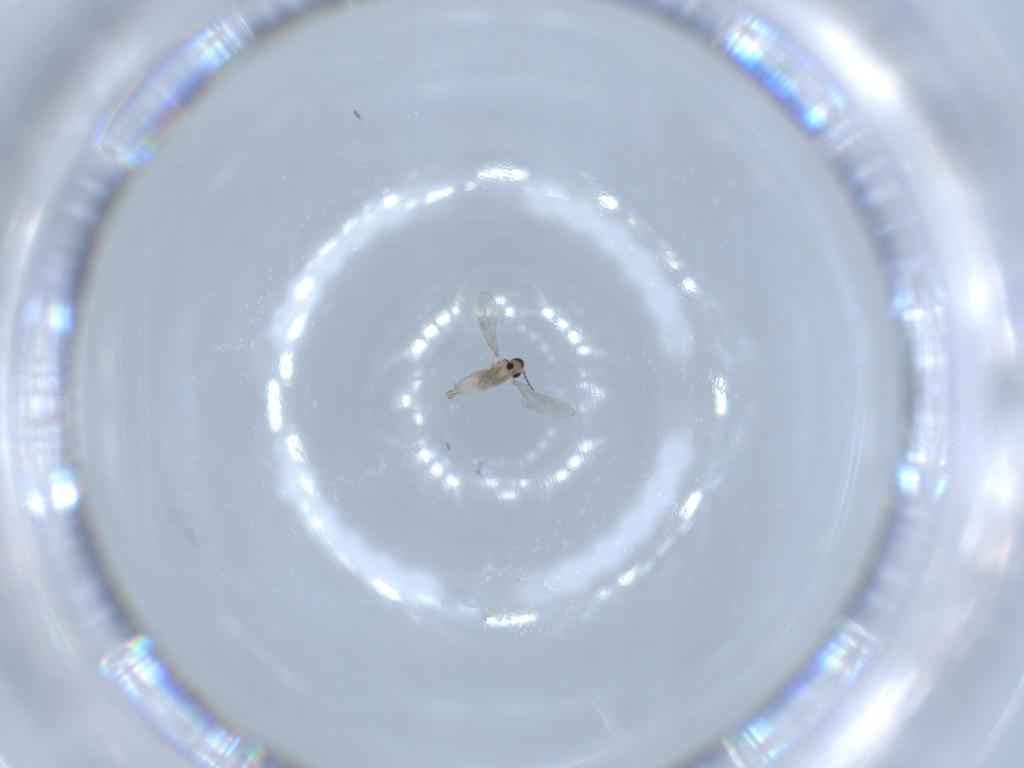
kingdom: Animalia
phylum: Arthropoda
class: Insecta
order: Diptera
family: Cecidomyiidae
